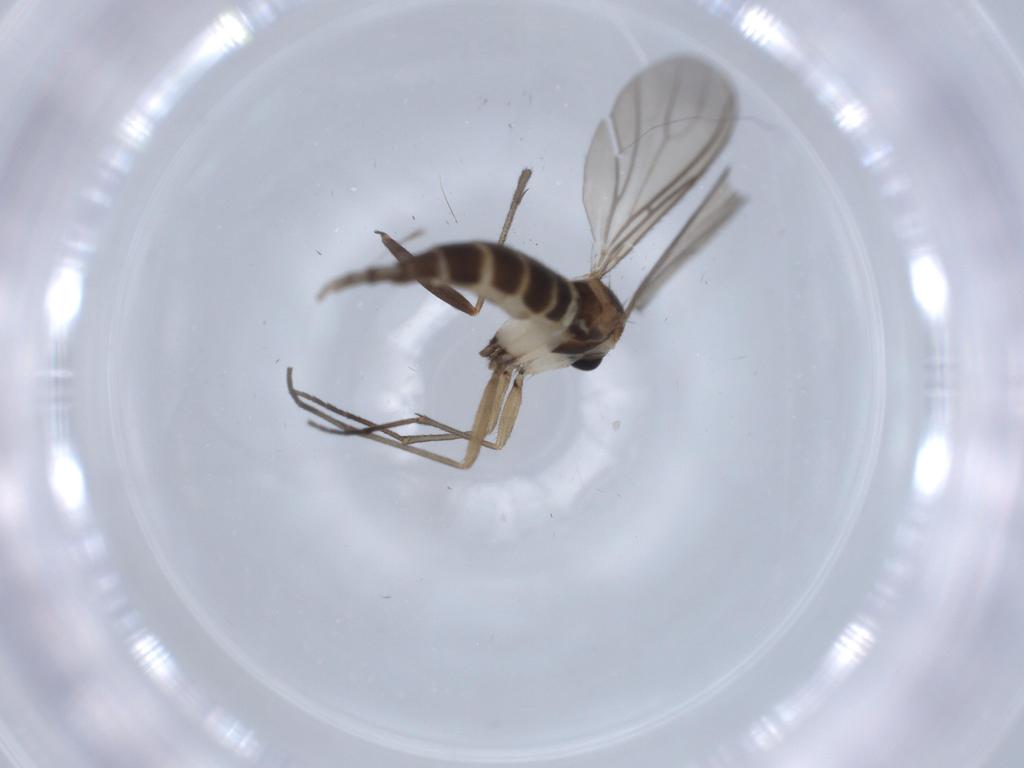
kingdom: Animalia
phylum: Arthropoda
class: Insecta
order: Diptera
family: Sciaridae
